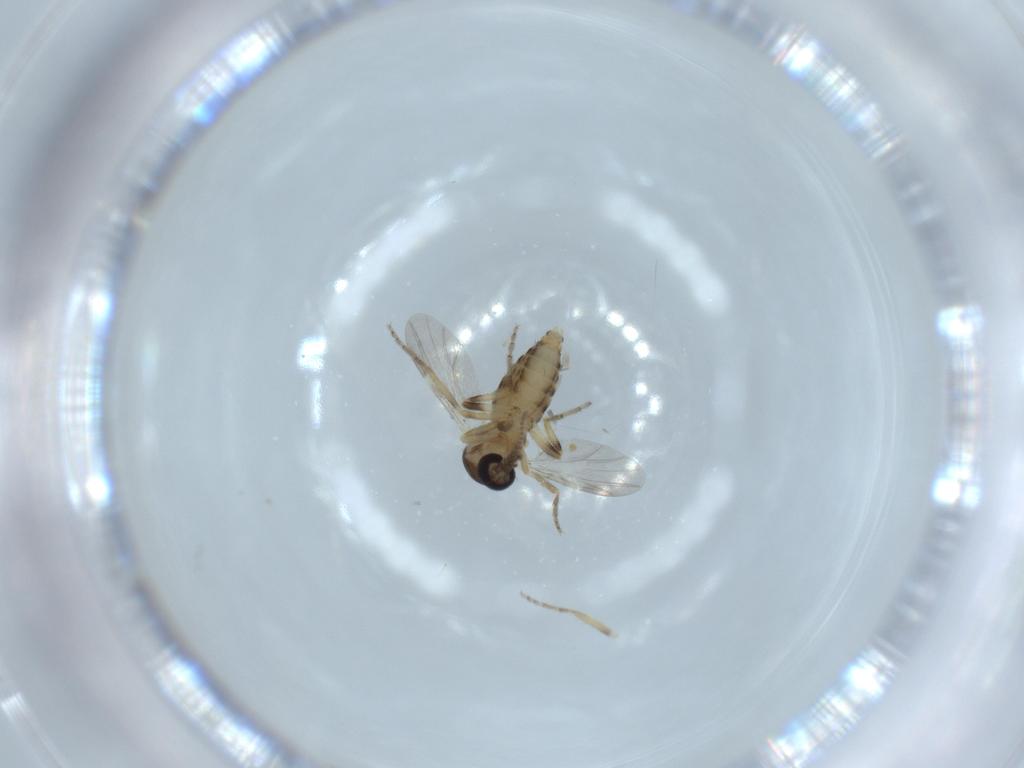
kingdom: Animalia
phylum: Arthropoda
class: Insecta
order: Diptera
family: Ceratopogonidae
